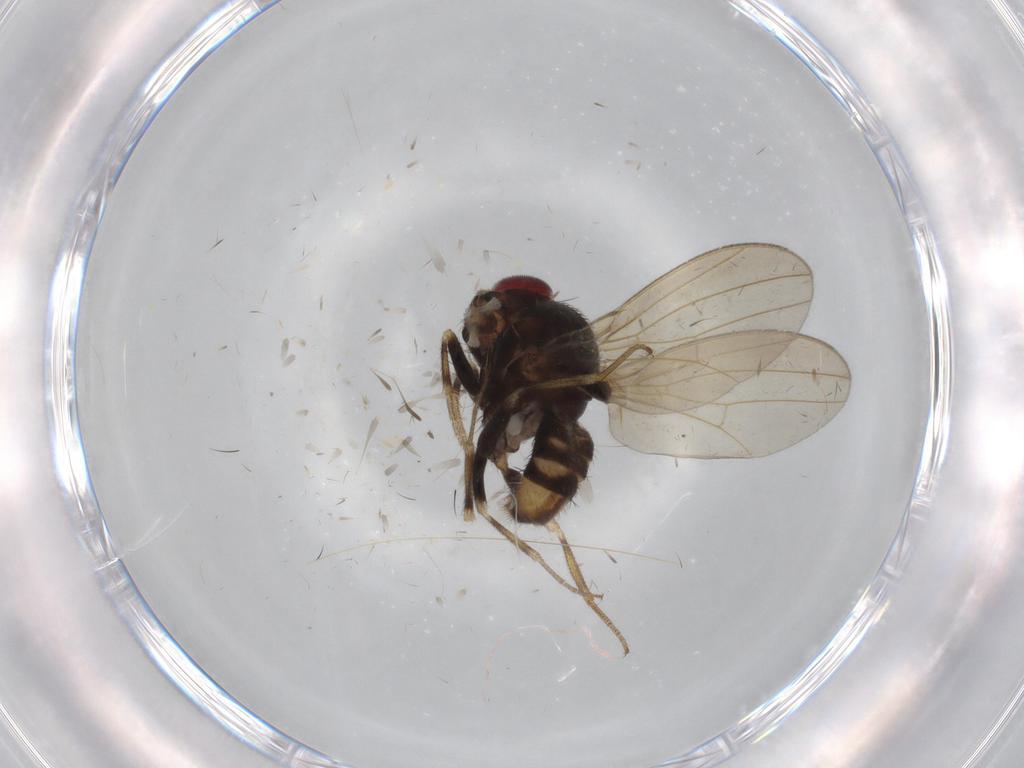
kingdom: Animalia
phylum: Arthropoda
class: Insecta
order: Diptera
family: Drosophilidae
